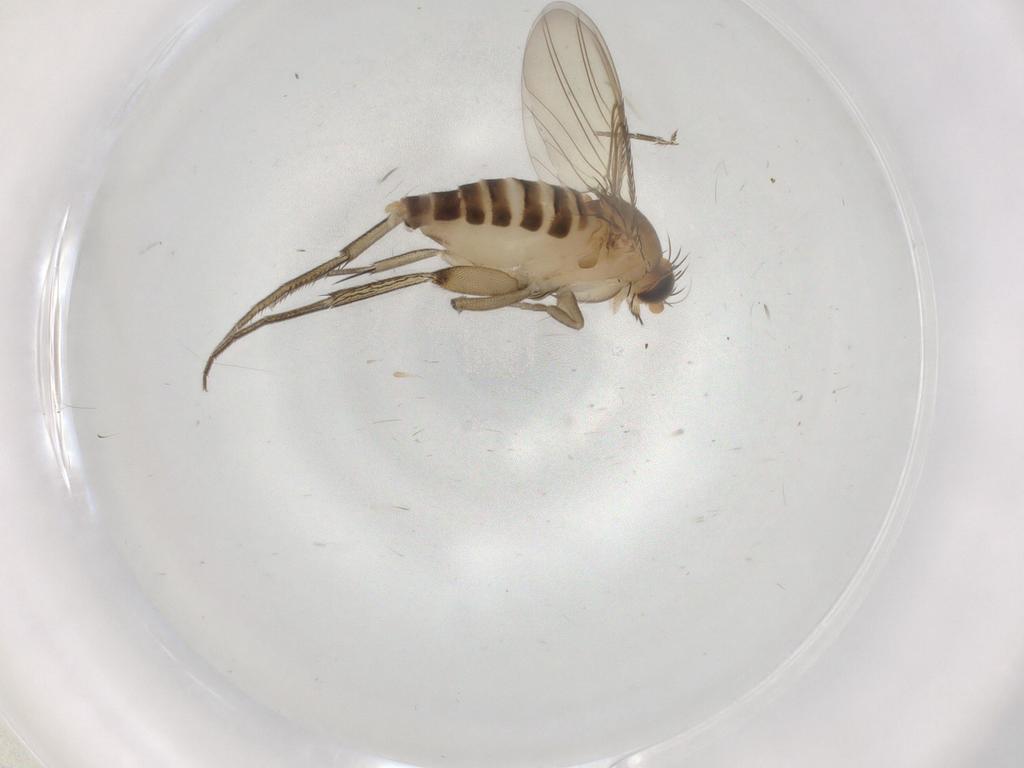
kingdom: Animalia
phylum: Arthropoda
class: Insecta
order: Diptera
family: Phoridae
